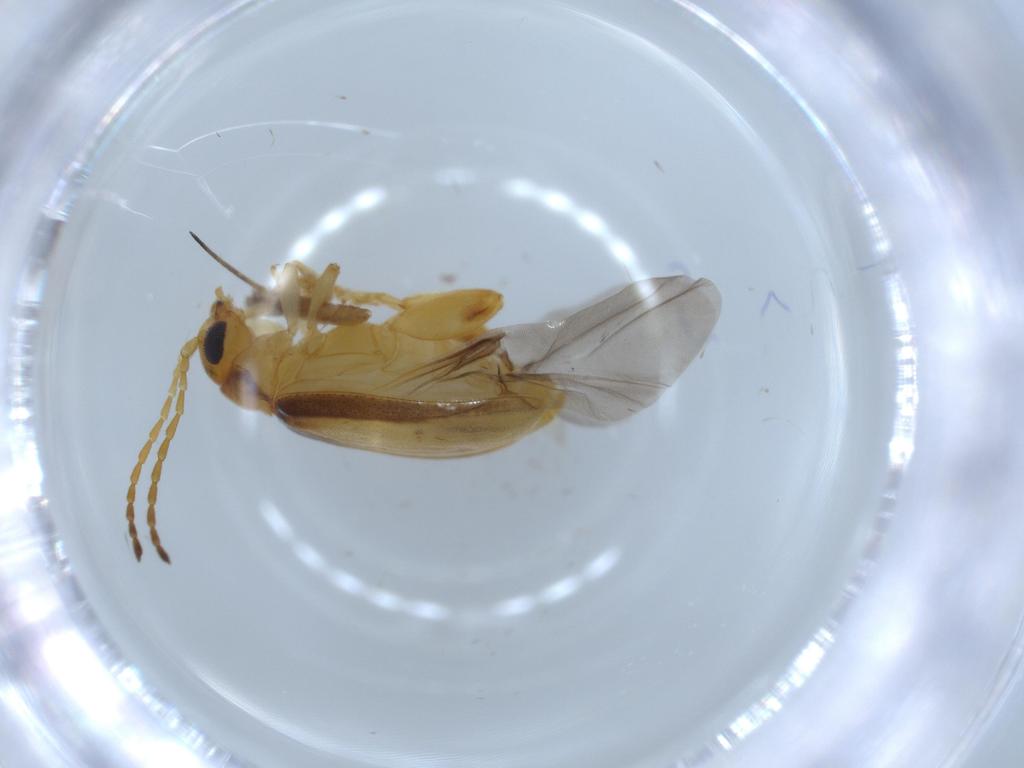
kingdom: Animalia
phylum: Arthropoda
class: Insecta
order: Coleoptera
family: Chrysomelidae
